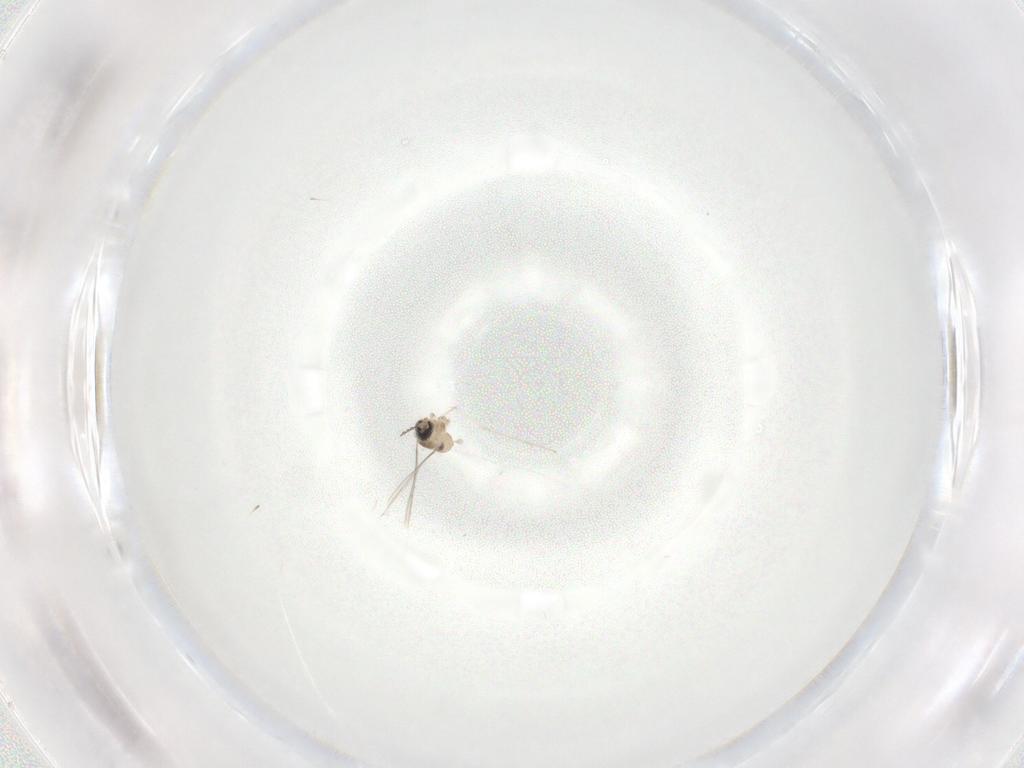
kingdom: Animalia
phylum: Arthropoda
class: Insecta
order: Diptera
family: Cecidomyiidae
